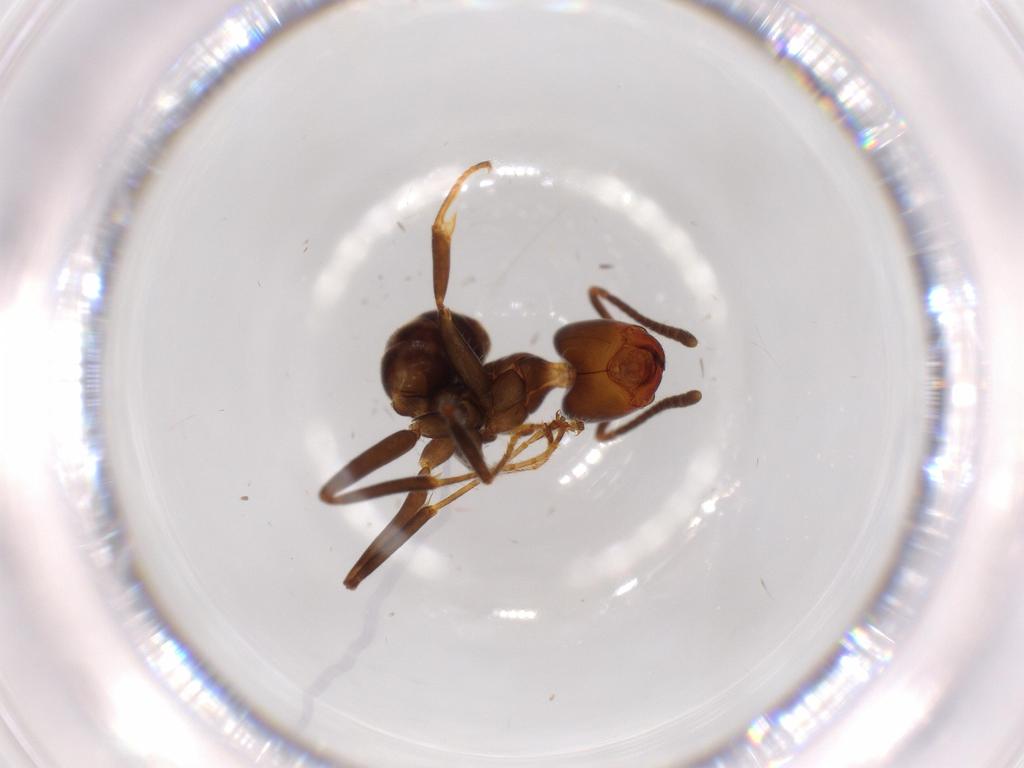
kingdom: Animalia
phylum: Arthropoda
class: Insecta
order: Hymenoptera
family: Formicidae
